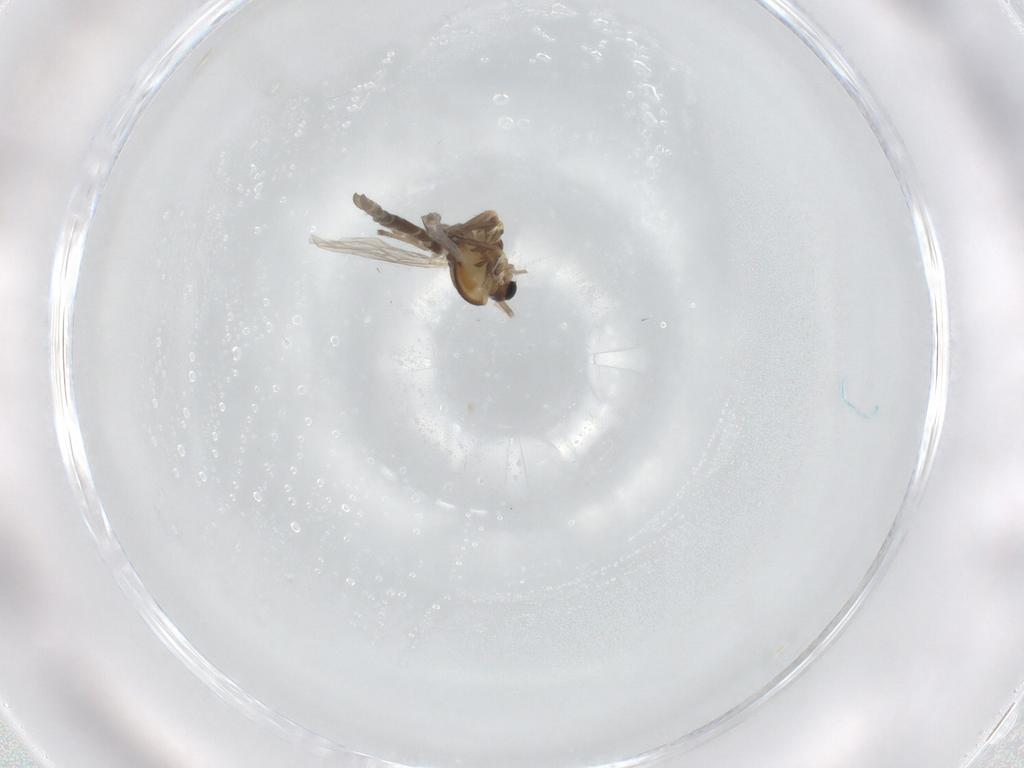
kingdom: Animalia
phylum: Arthropoda
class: Insecta
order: Diptera
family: Chironomidae
